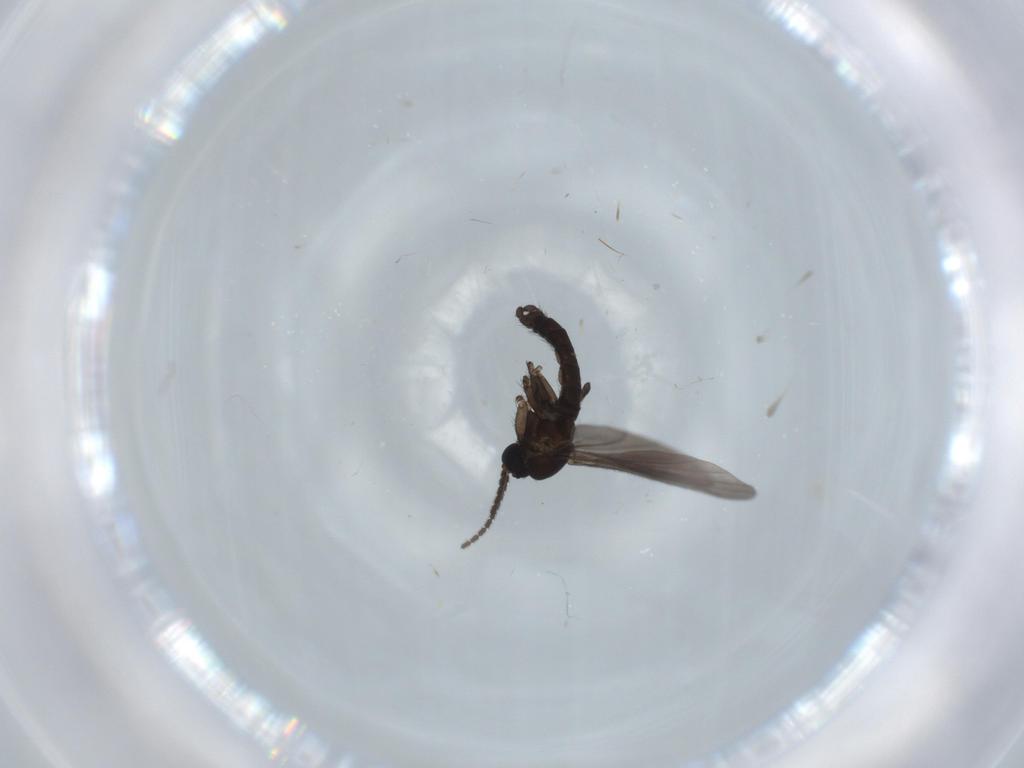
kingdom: Animalia
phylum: Arthropoda
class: Insecta
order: Diptera
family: Sciaridae
